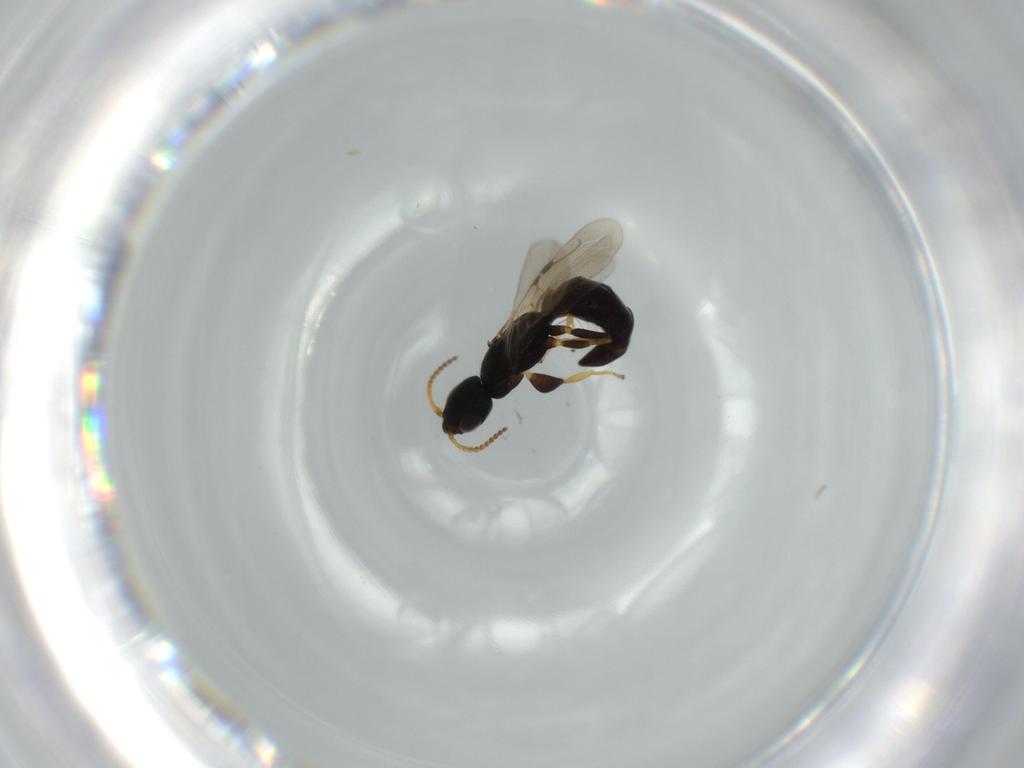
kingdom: Animalia
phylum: Arthropoda
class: Insecta
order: Hymenoptera
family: Bethylidae
